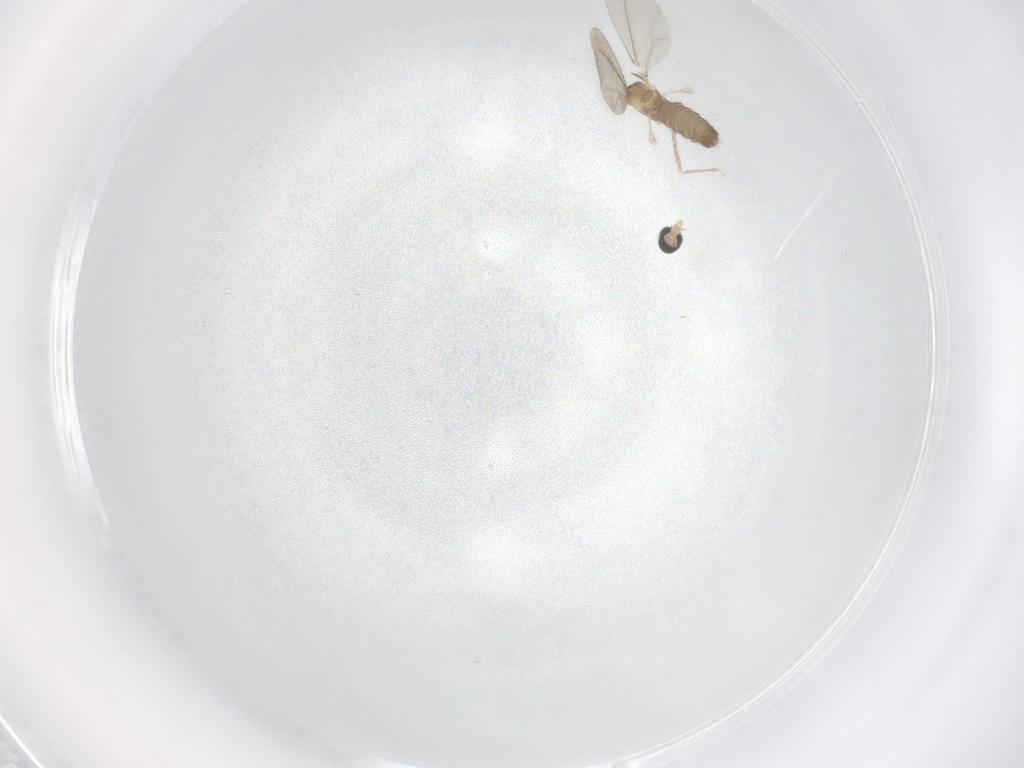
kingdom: Animalia
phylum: Arthropoda
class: Insecta
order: Diptera
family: Cecidomyiidae
